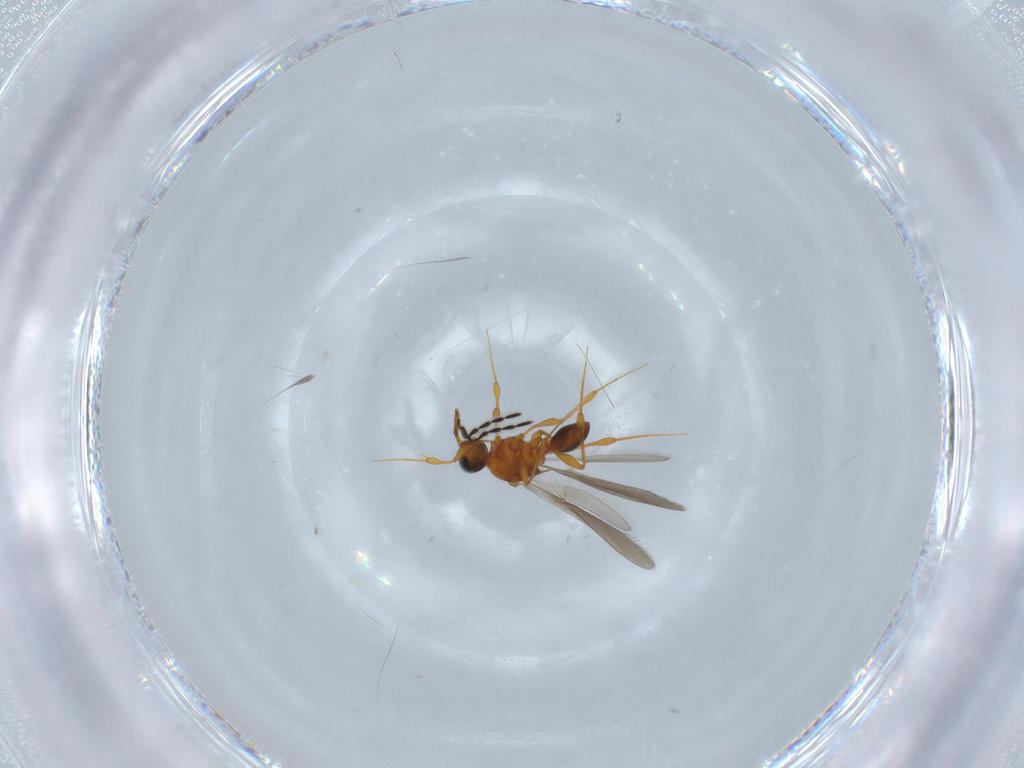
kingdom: Animalia
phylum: Arthropoda
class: Insecta
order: Hymenoptera
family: Platygastridae
